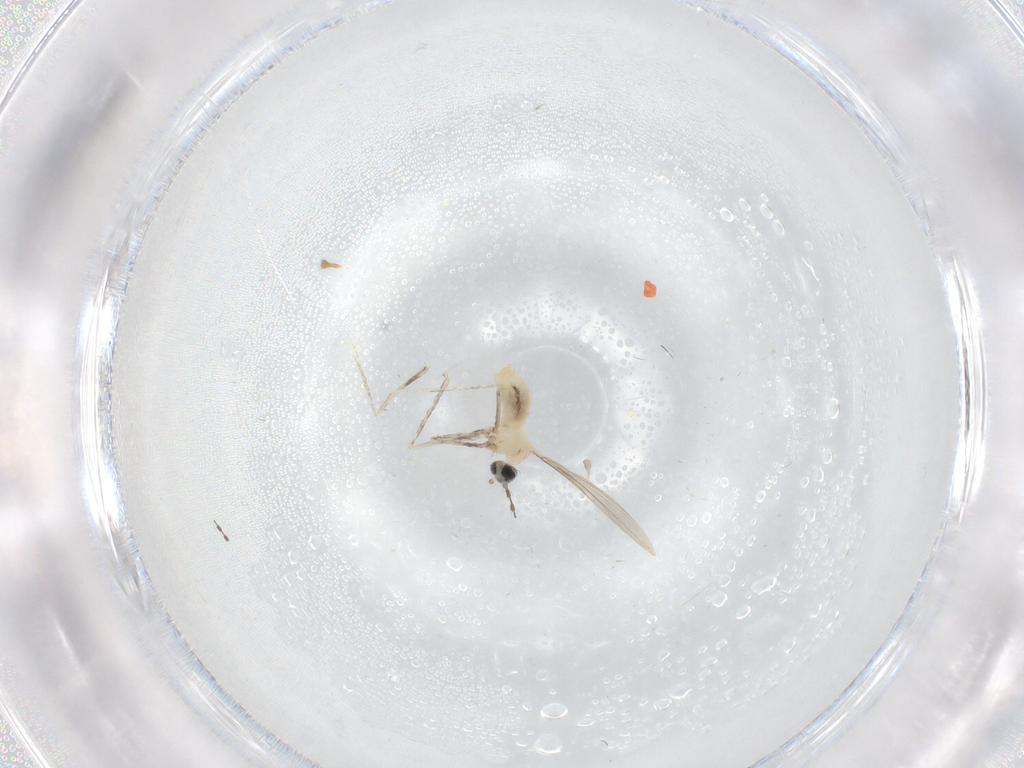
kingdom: Animalia
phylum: Arthropoda
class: Insecta
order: Diptera
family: Cecidomyiidae
